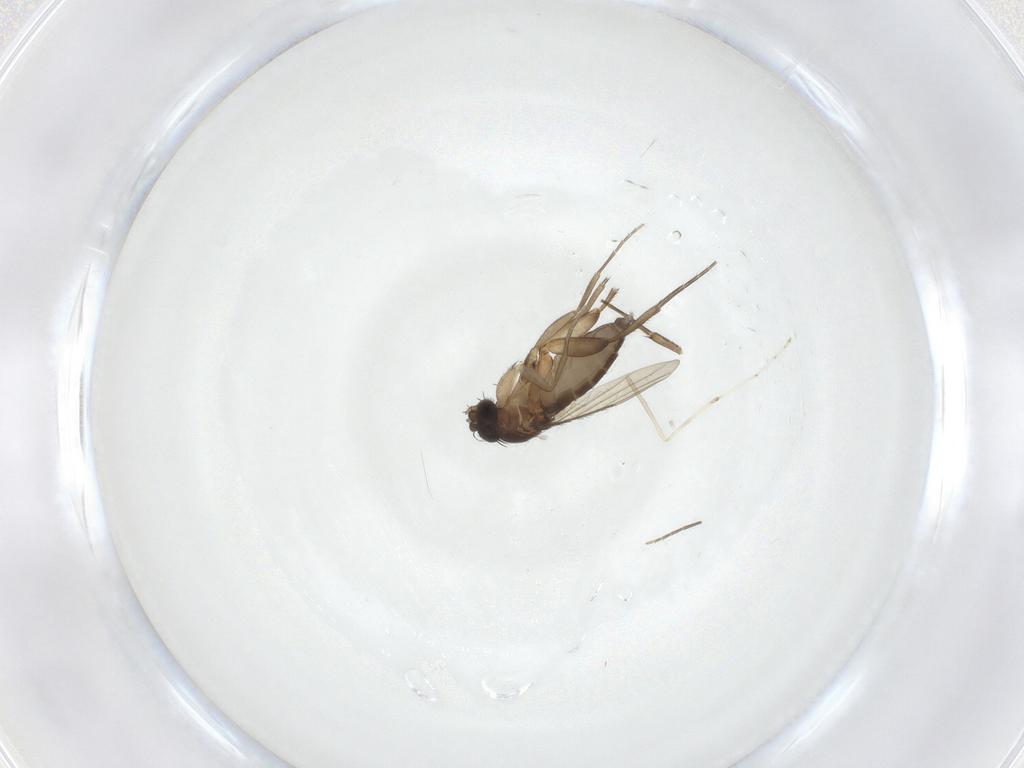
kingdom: Animalia
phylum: Arthropoda
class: Insecta
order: Diptera
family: Phoridae
